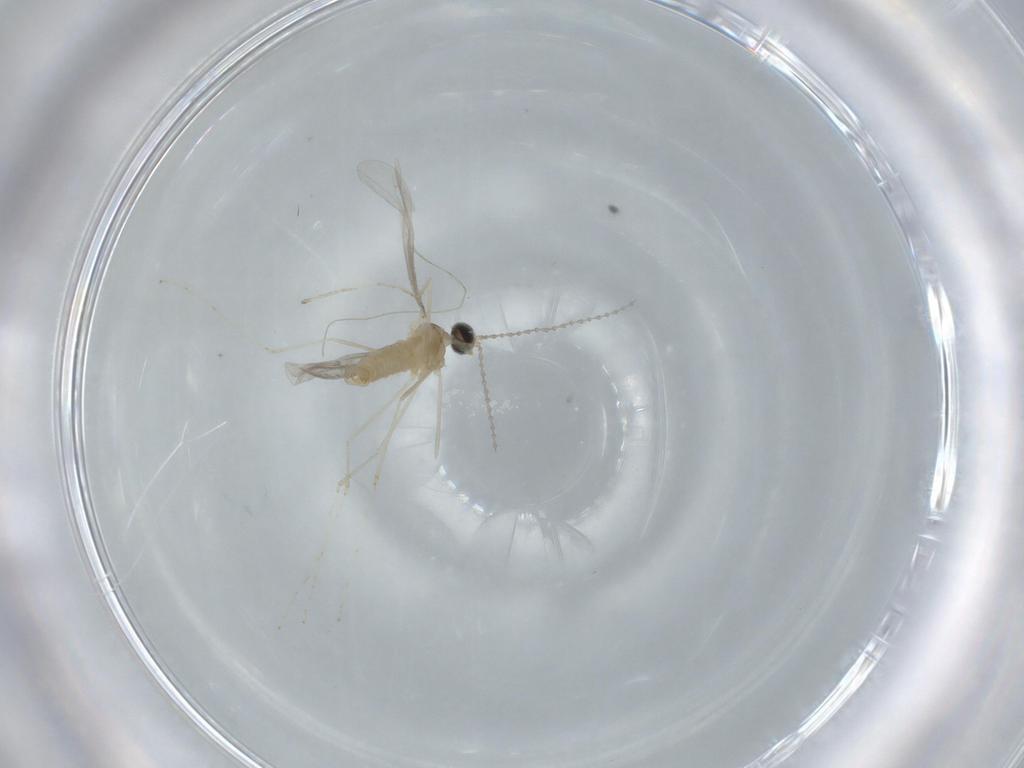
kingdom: Animalia
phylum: Arthropoda
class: Insecta
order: Diptera
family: Cecidomyiidae
